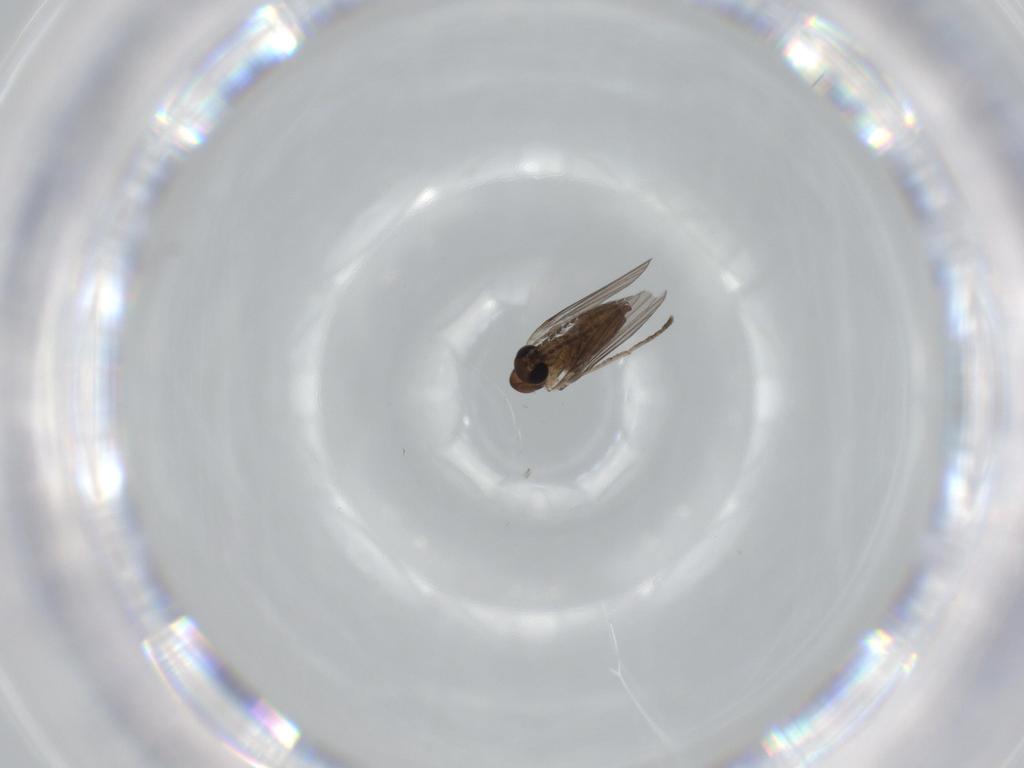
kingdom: Animalia
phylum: Arthropoda
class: Insecta
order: Diptera
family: Psychodidae
